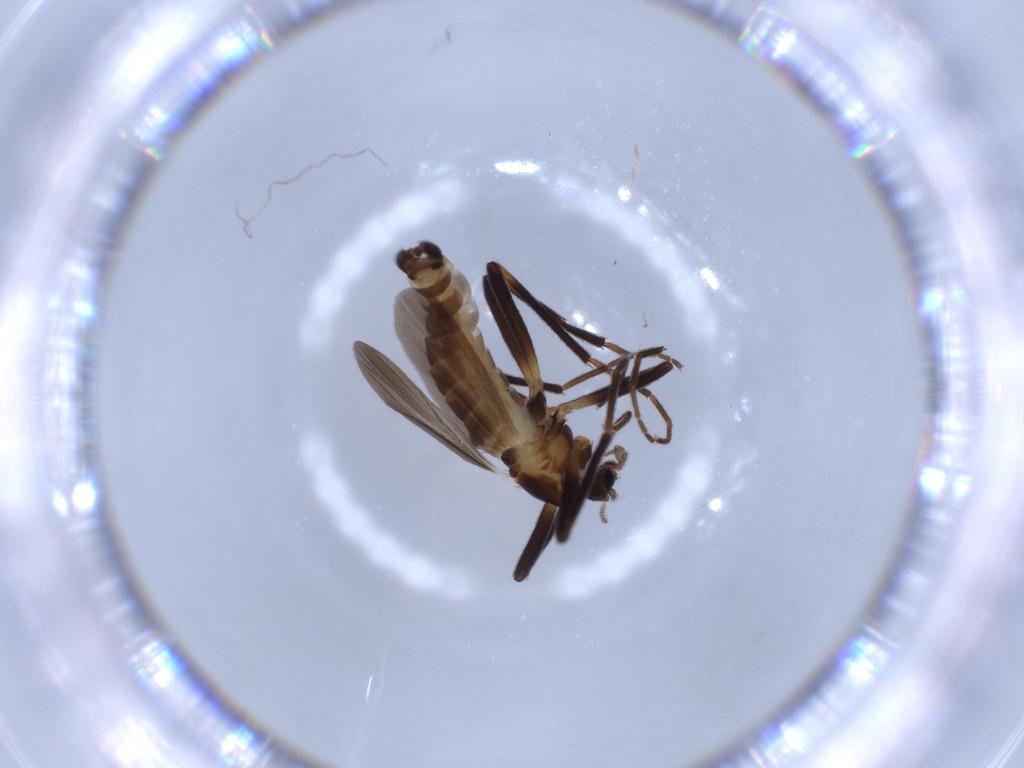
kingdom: Animalia
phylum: Arthropoda
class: Insecta
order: Diptera
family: Chironomidae
